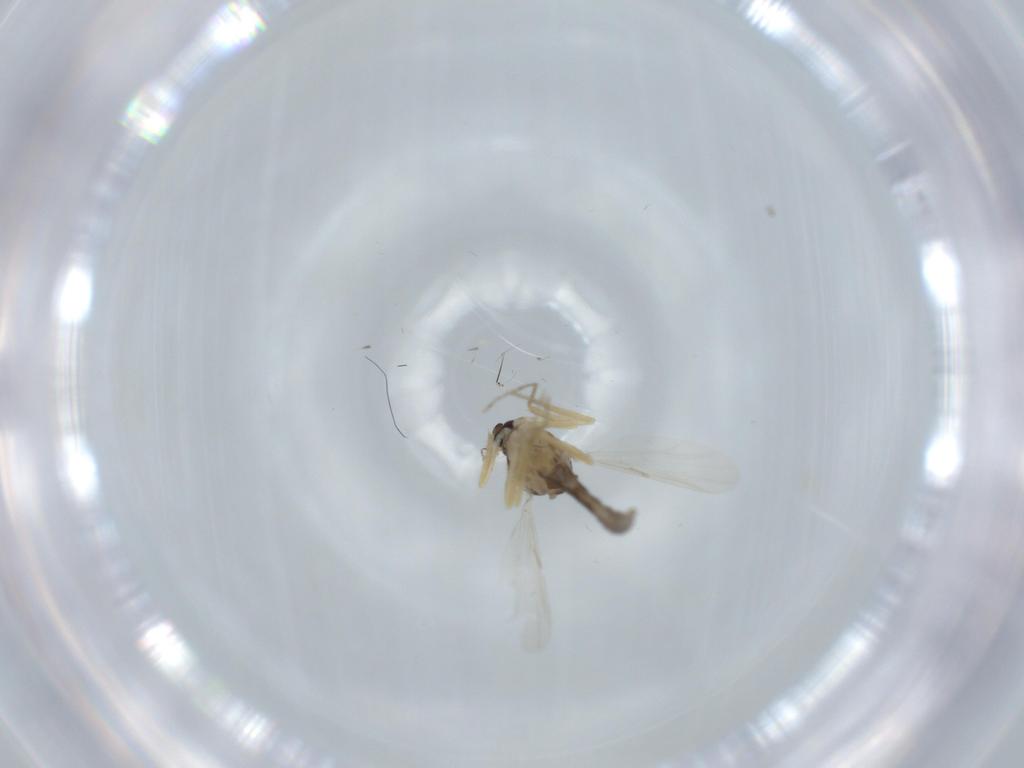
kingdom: Animalia
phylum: Arthropoda
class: Insecta
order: Diptera
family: Ceratopogonidae
